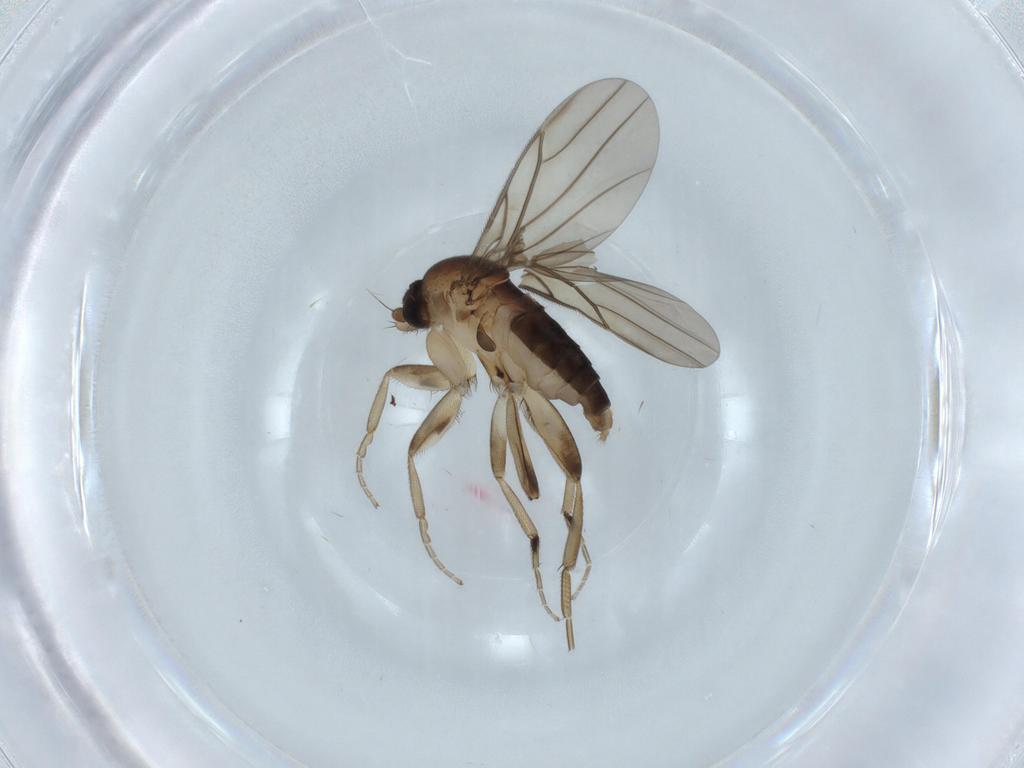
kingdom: Animalia
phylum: Arthropoda
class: Insecta
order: Diptera
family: Phoridae
